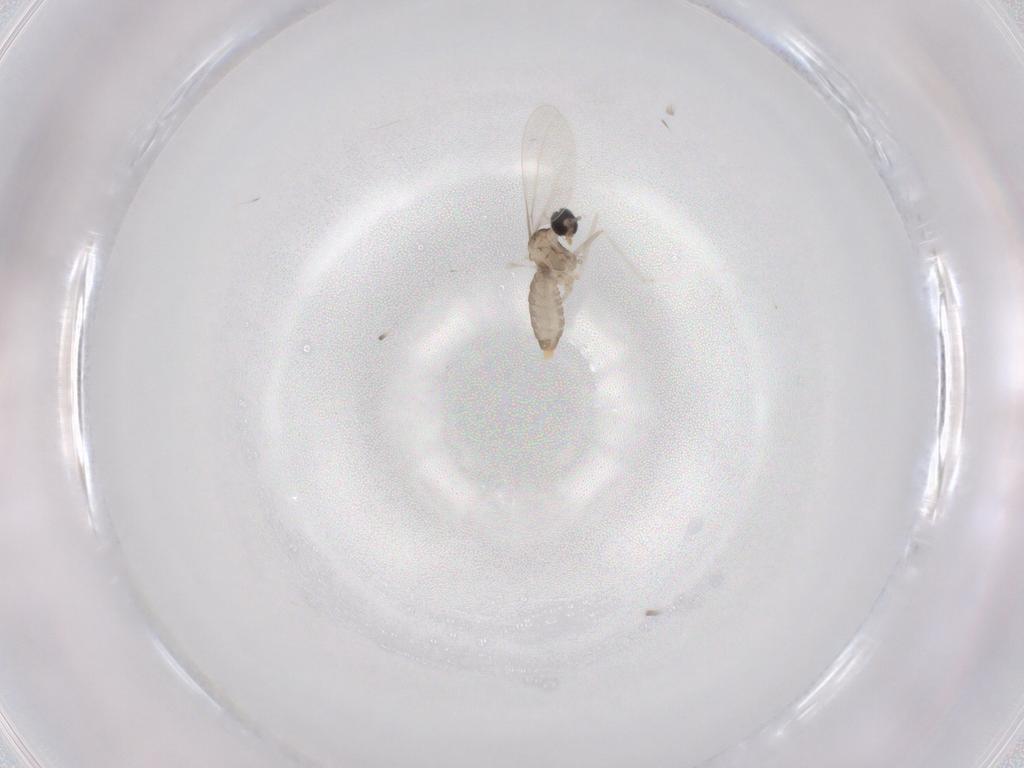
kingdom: Animalia
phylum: Arthropoda
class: Insecta
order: Diptera
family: Cecidomyiidae
